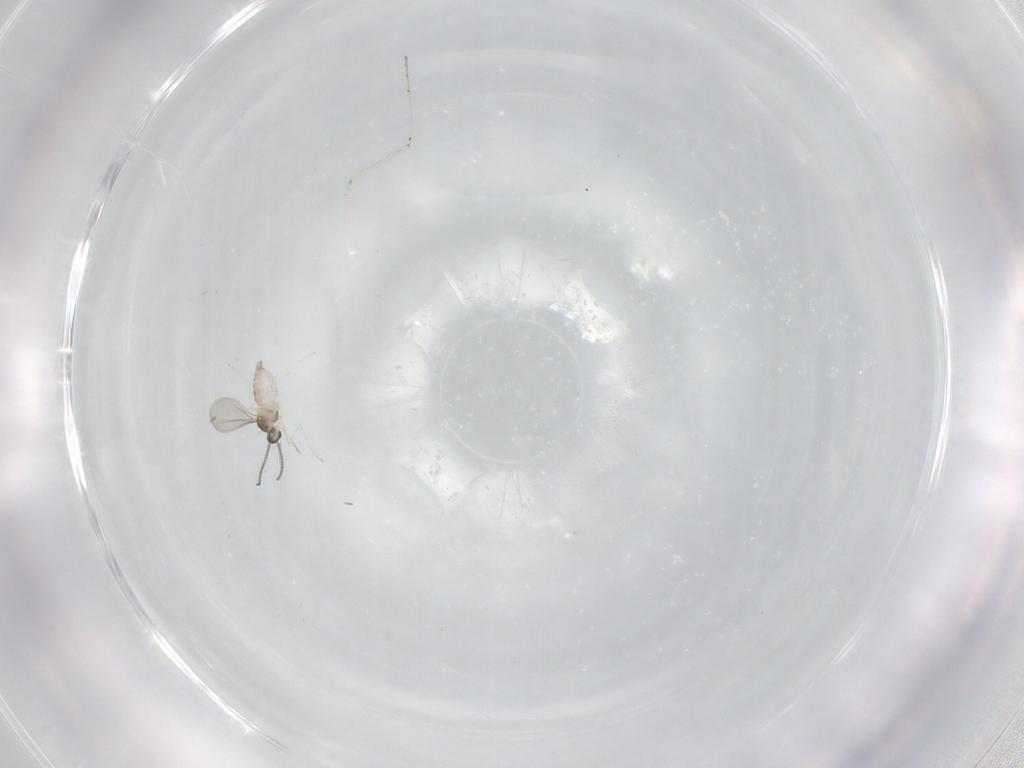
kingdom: Animalia
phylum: Arthropoda
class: Insecta
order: Diptera
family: Cecidomyiidae
